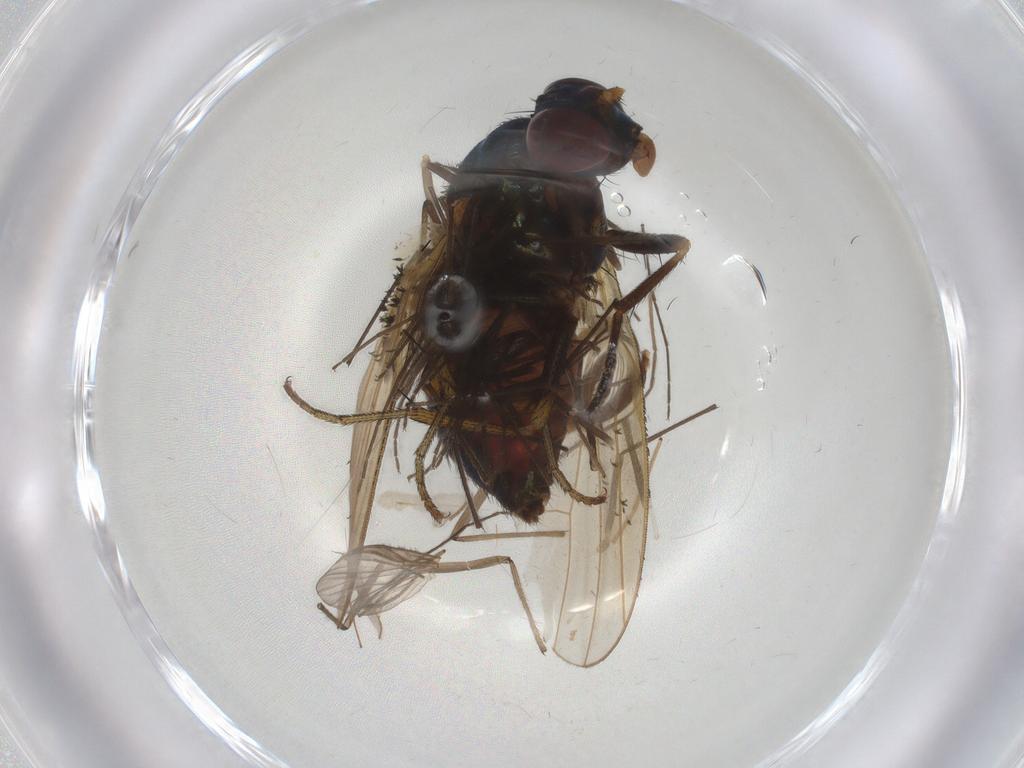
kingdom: Animalia
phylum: Arthropoda
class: Insecta
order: Diptera
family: Chironomidae
